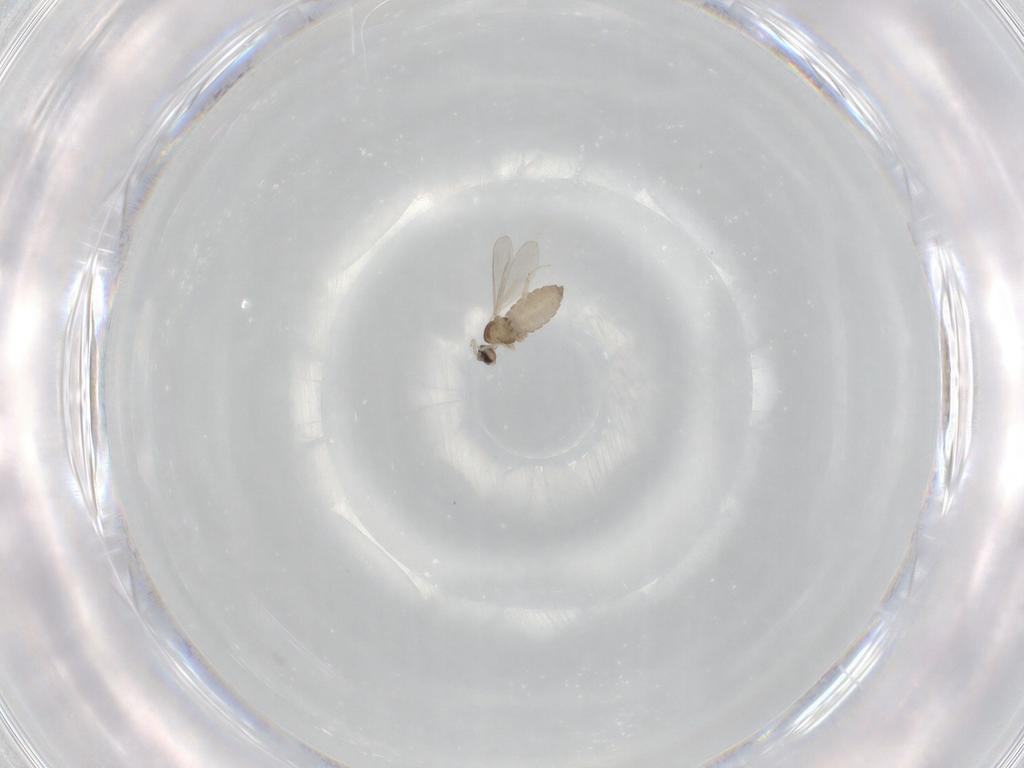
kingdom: Animalia
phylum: Arthropoda
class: Insecta
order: Diptera
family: Cecidomyiidae
